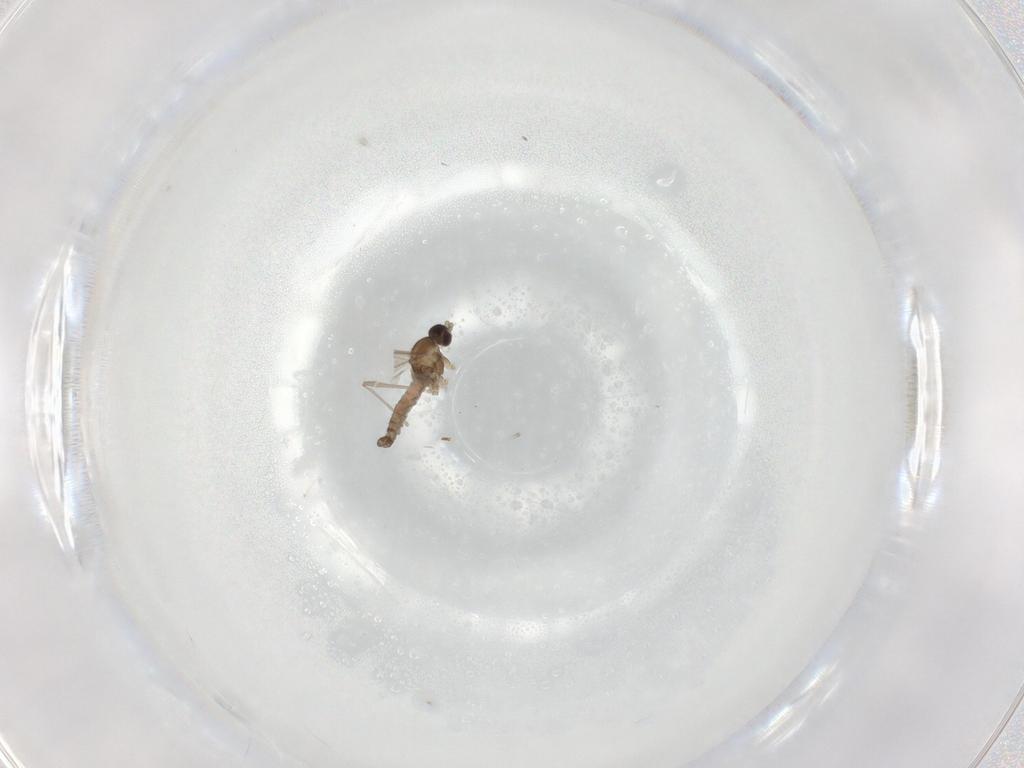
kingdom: Animalia
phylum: Arthropoda
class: Insecta
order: Diptera
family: Cecidomyiidae
